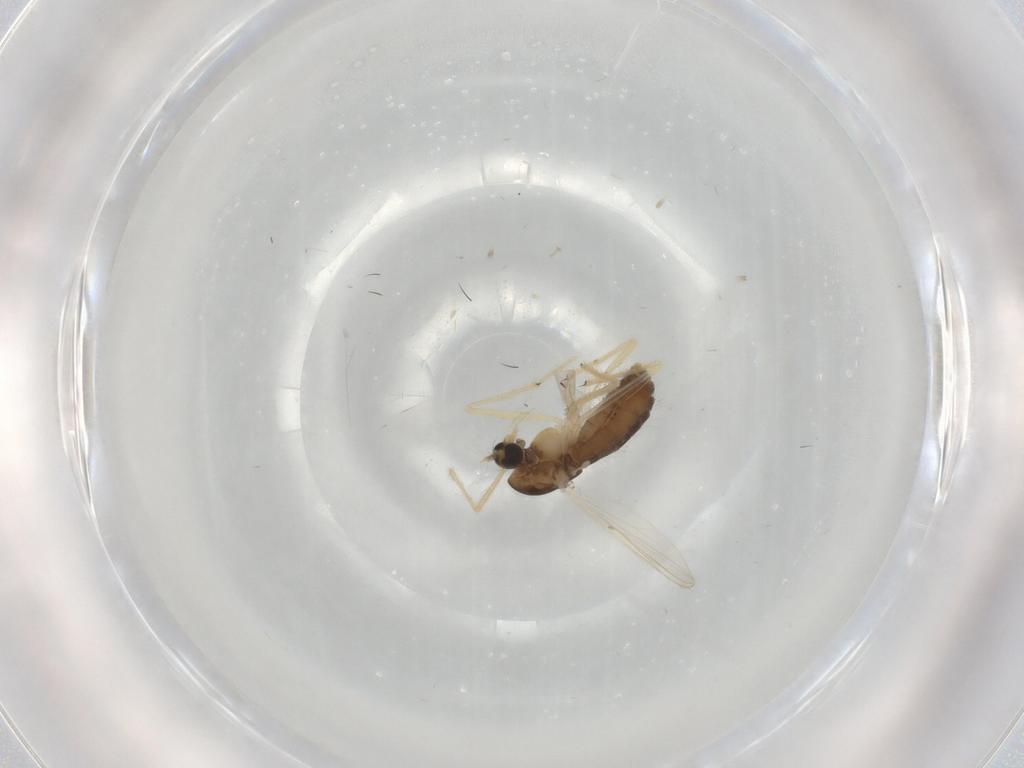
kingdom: Animalia
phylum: Arthropoda
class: Insecta
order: Diptera
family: Chironomidae
